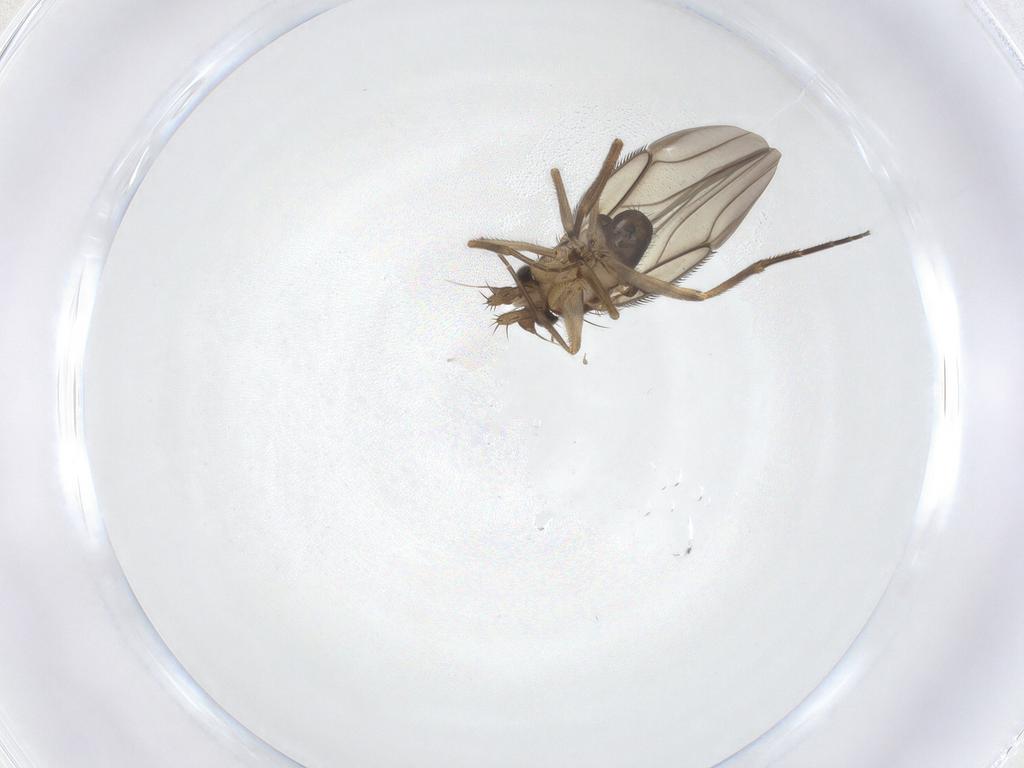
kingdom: Animalia
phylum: Arthropoda
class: Insecta
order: Diptera
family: Phoridae
